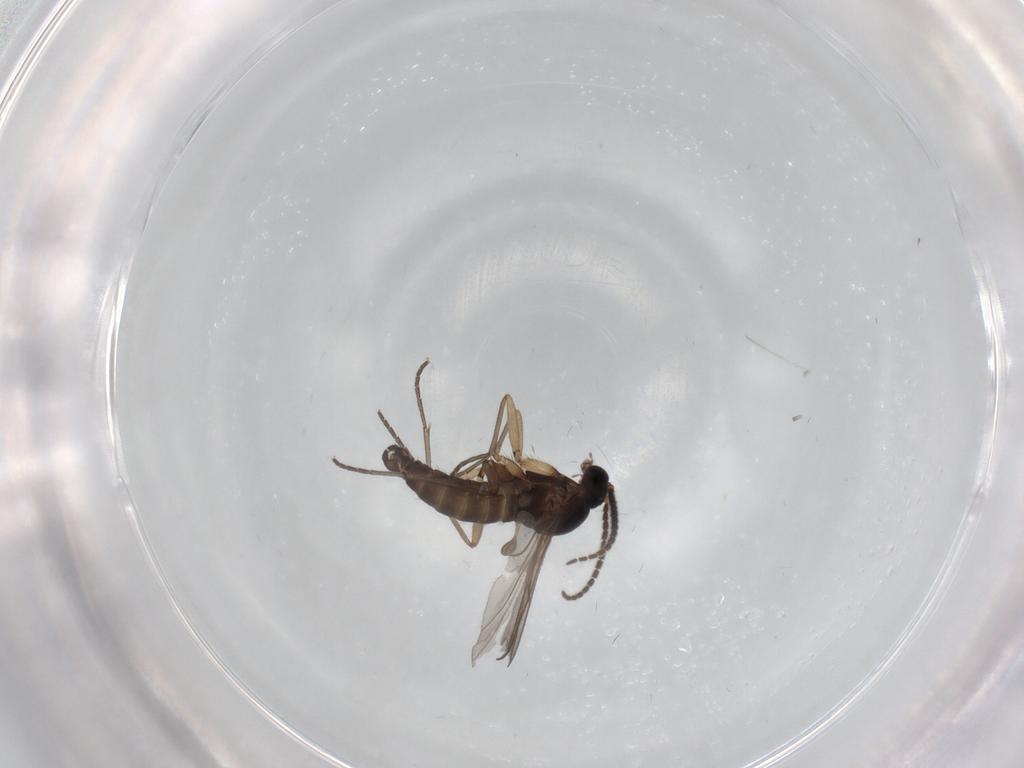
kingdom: Animalia
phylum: Arthropoda
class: Insecta
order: Diptera
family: Sciaridae
